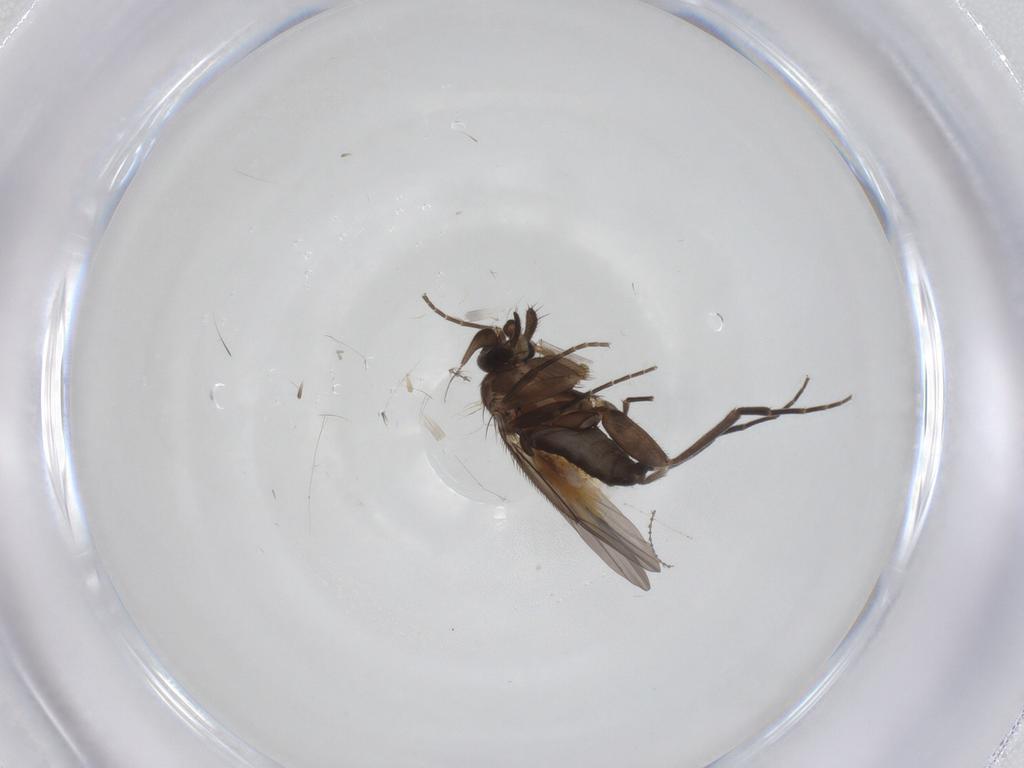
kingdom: Animalia
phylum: Arthropoda
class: Insecta
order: Diptera
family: Phoridae
